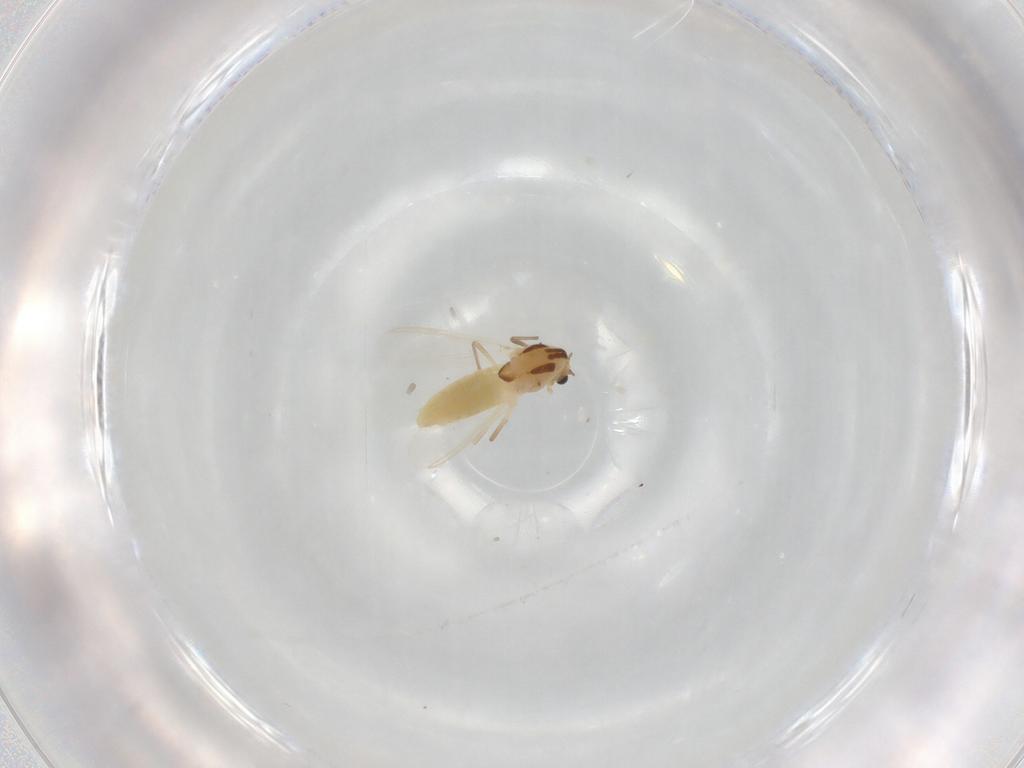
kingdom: Animalia
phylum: Arthropoda
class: Insecta
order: Diptera
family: Chironomidae
